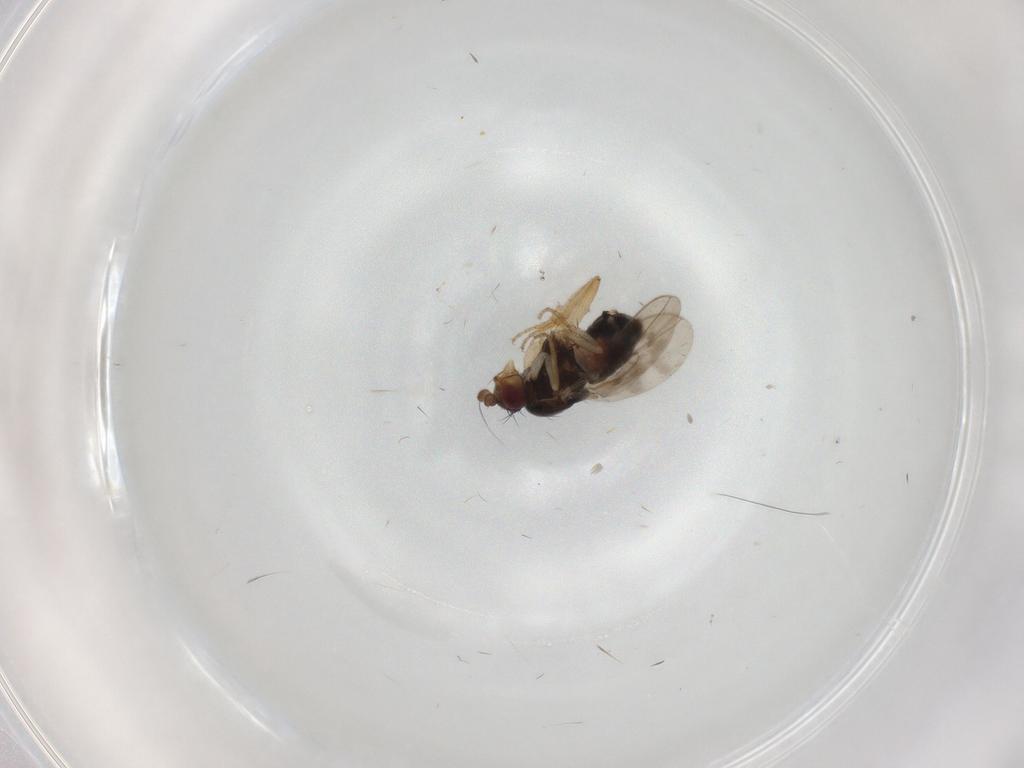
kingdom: Animalia
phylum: Arthropoda
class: Insecta
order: Diptera
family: Sphaeroceridae
